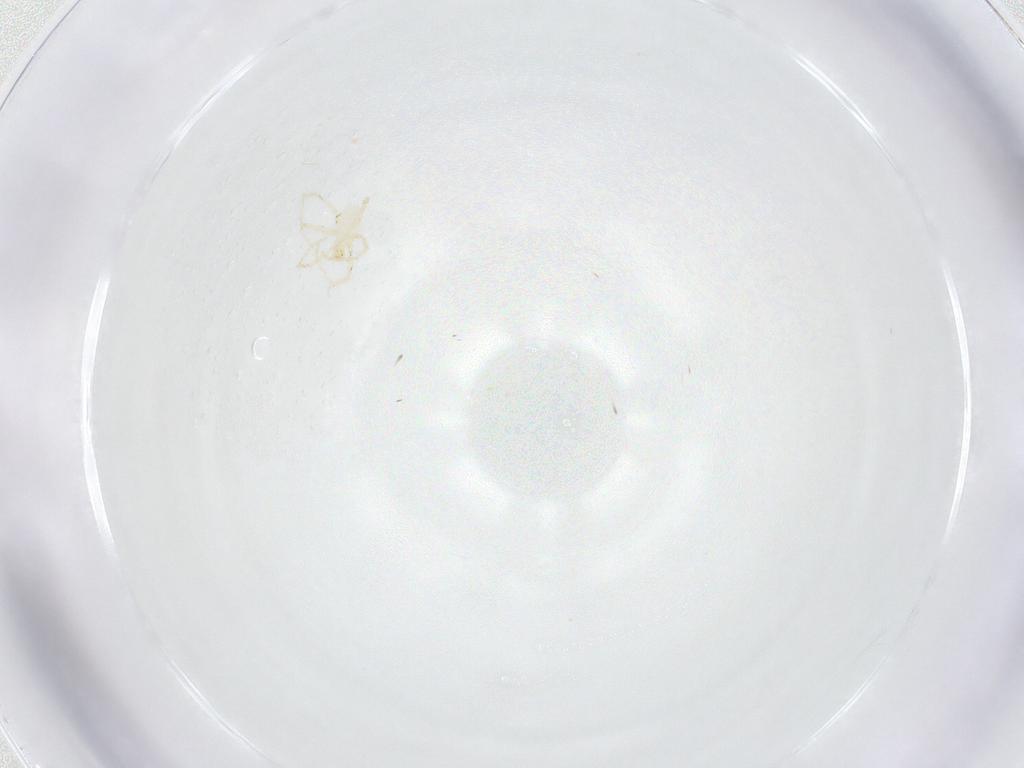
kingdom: Animalia
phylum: Arthropoda
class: Arachnida
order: Trombidiformes
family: Erythraeidae
